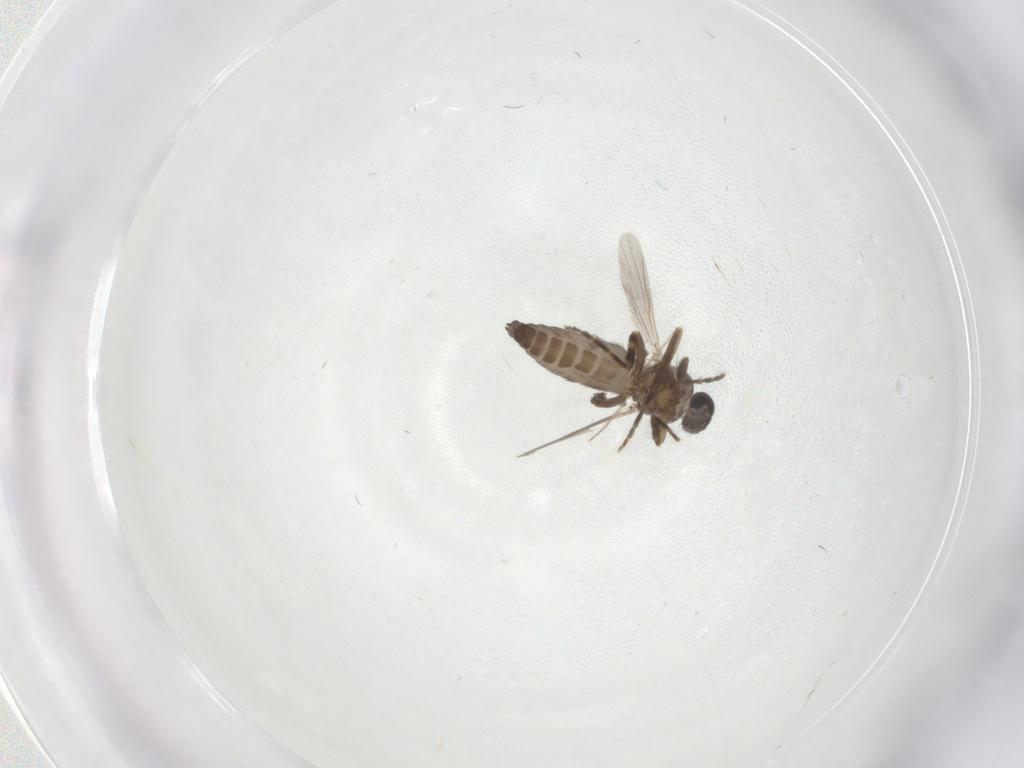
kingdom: Animalia
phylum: Arthropoda
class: Insecta
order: Diptera
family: Ceratopogonidae
